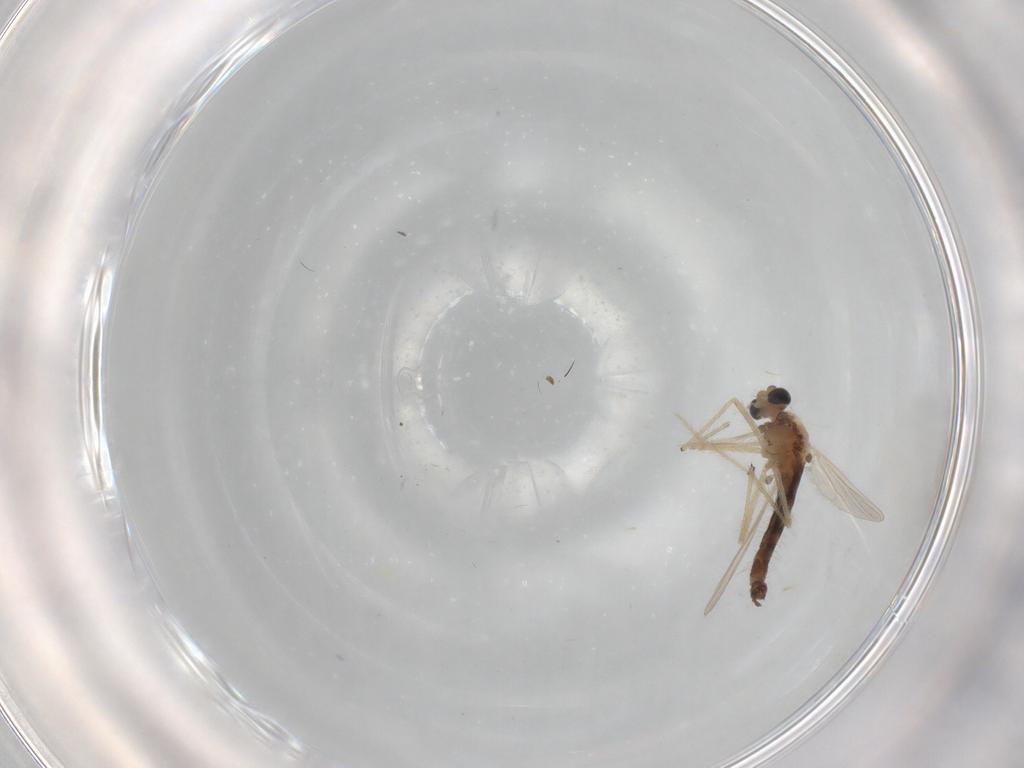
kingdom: Animalia
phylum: Arthropoda
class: Insecta
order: Diptera
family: Chironomidae
